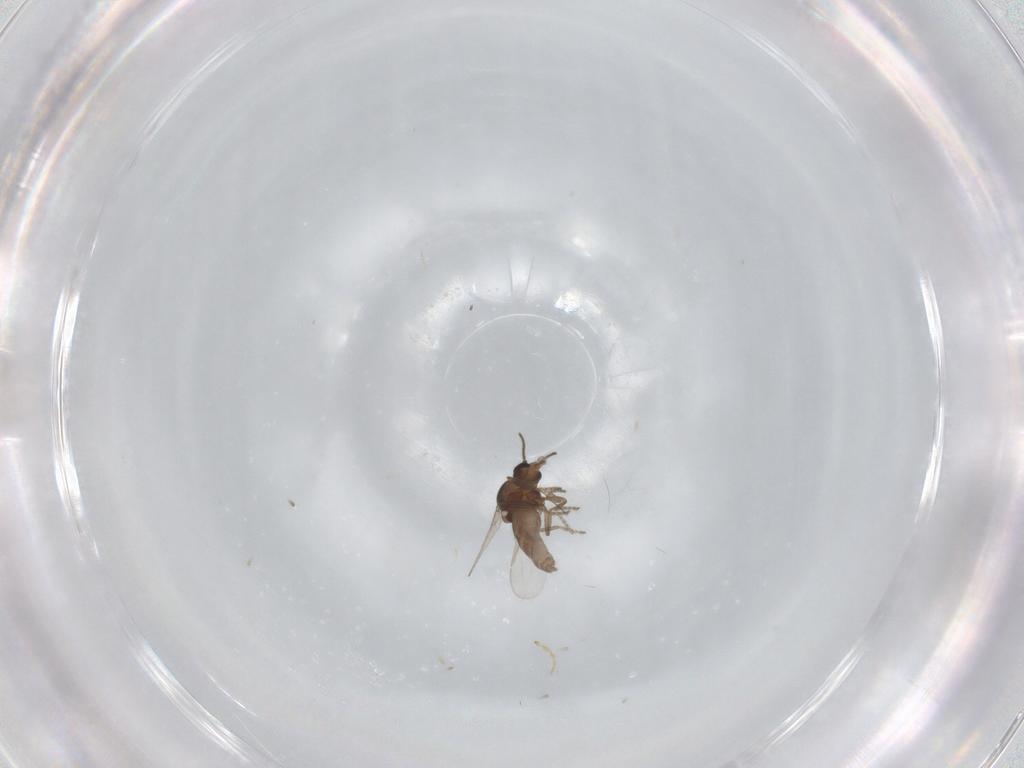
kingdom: Animalia
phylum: Arthropoda
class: Insecta
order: Diptera
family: Ceratopogonidae
